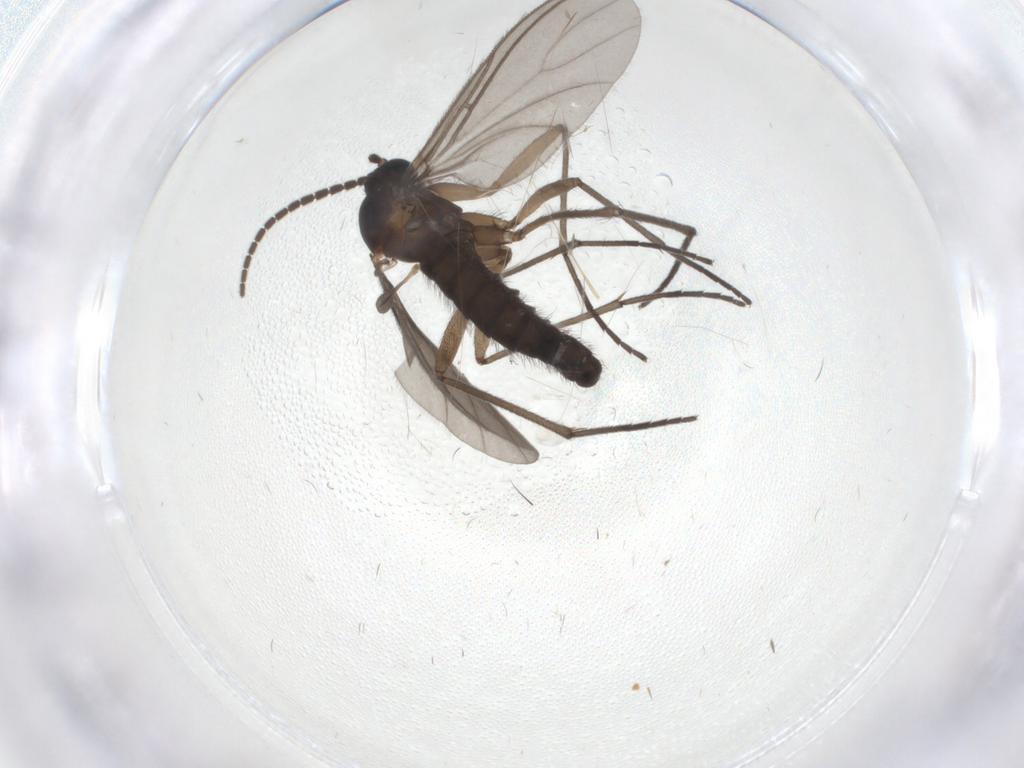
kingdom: Animalia
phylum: Arthropoda
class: Insecta
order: Diptera
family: Sciaridae
